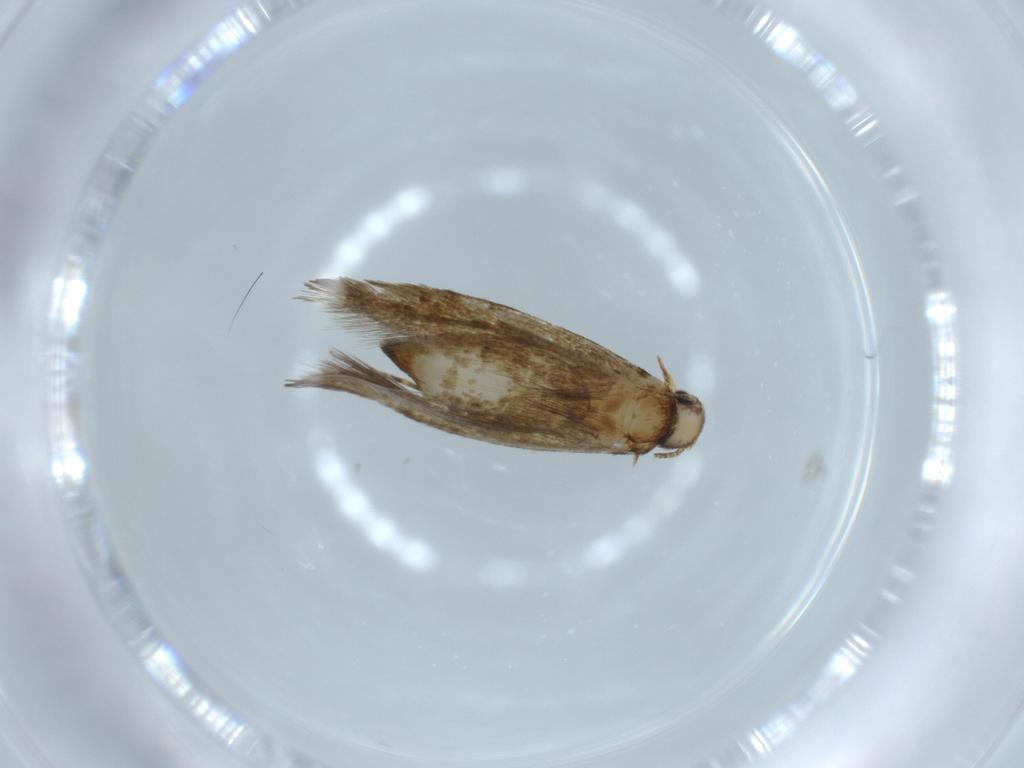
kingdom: Animalia
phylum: Arthropoda
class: Insecta
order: Lepidoptera
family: Tineidae
